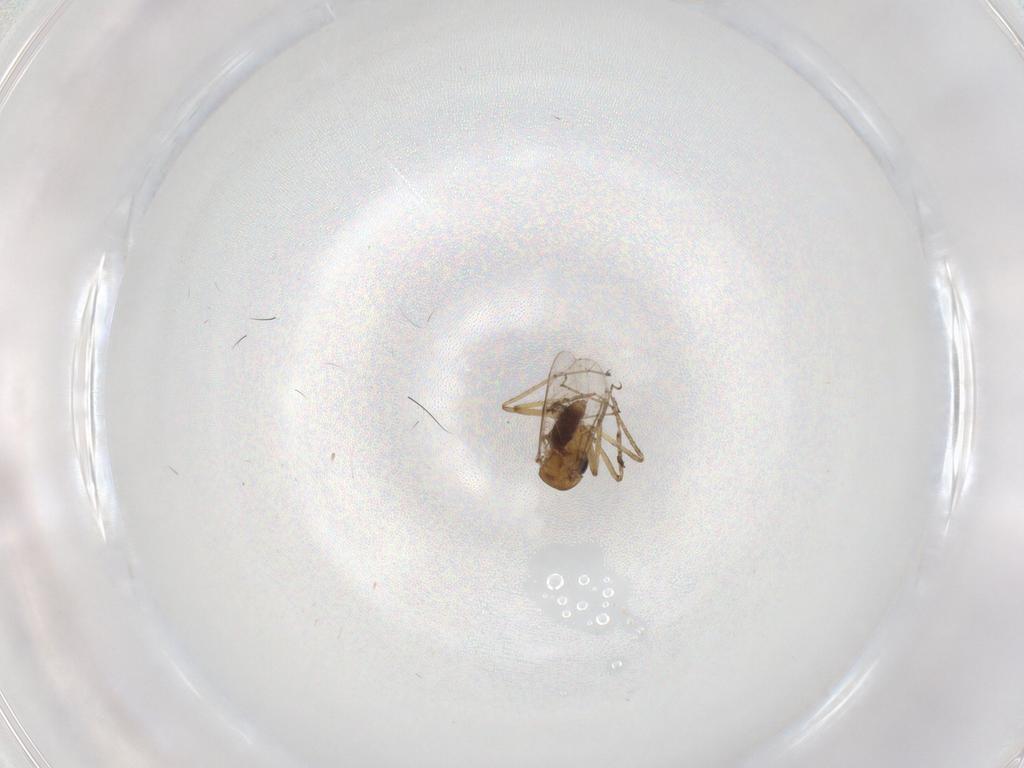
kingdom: Animalia
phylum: Arthropoda
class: Insecta
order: Diptera
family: Chironomidae
